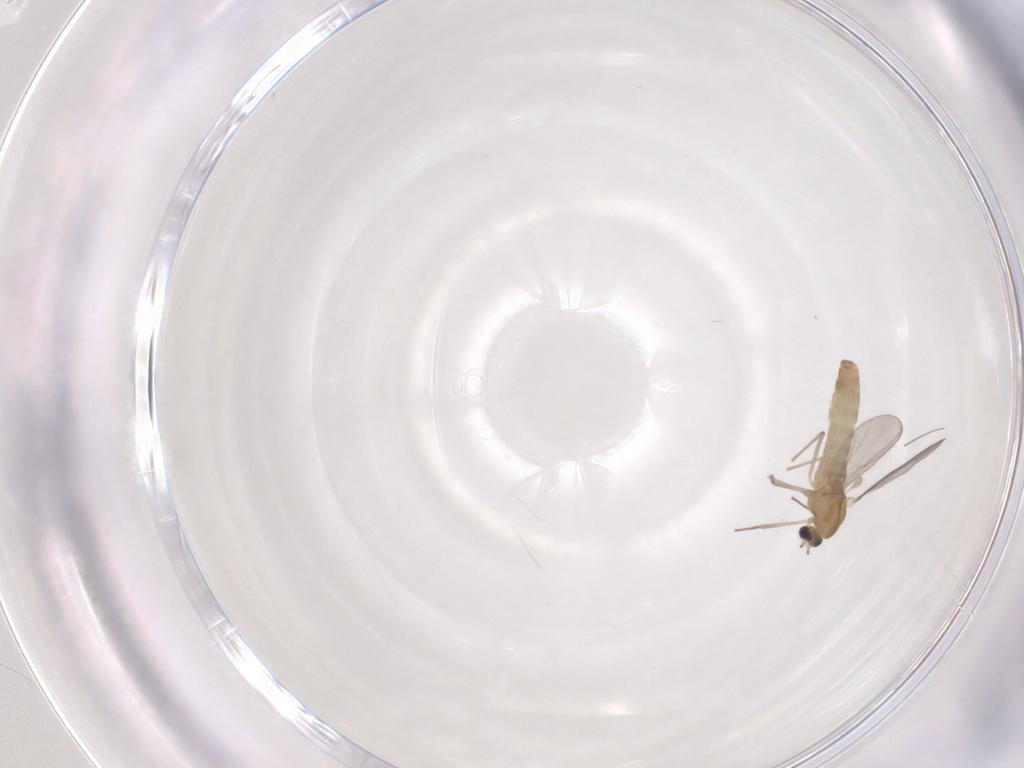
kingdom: Animalia
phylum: Arthropoda
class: Insecta
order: Diptera
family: Chironomidae
